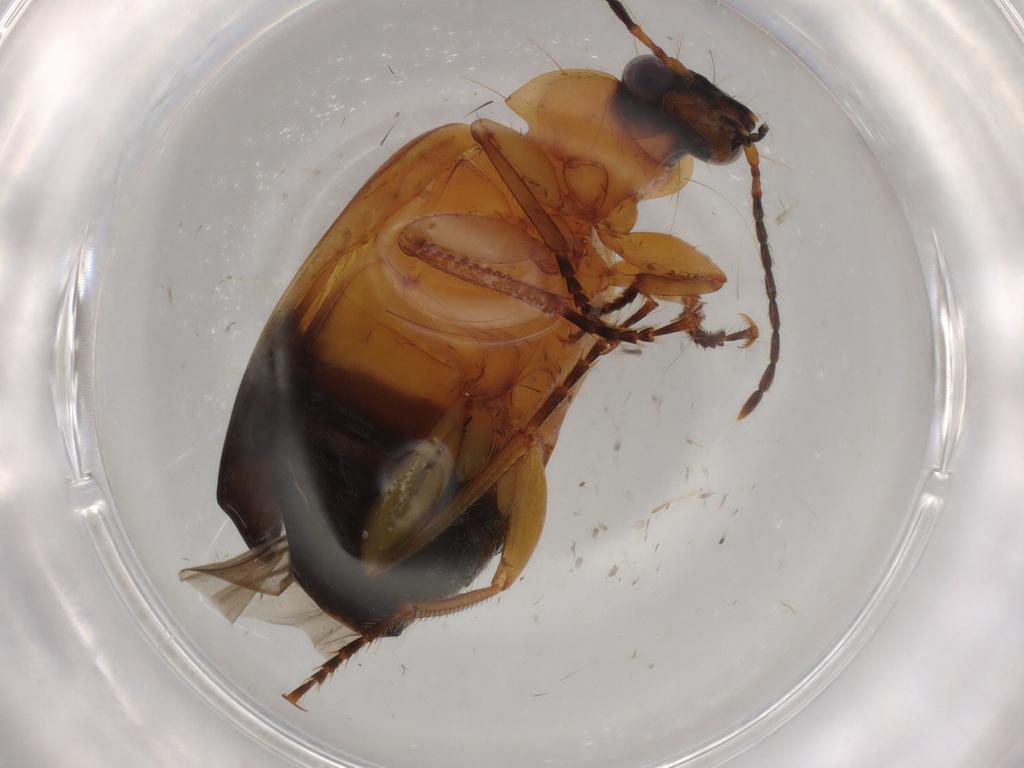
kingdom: Animalia
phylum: Arthropoda
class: Insecta
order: Coleoptera
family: Carabidae
